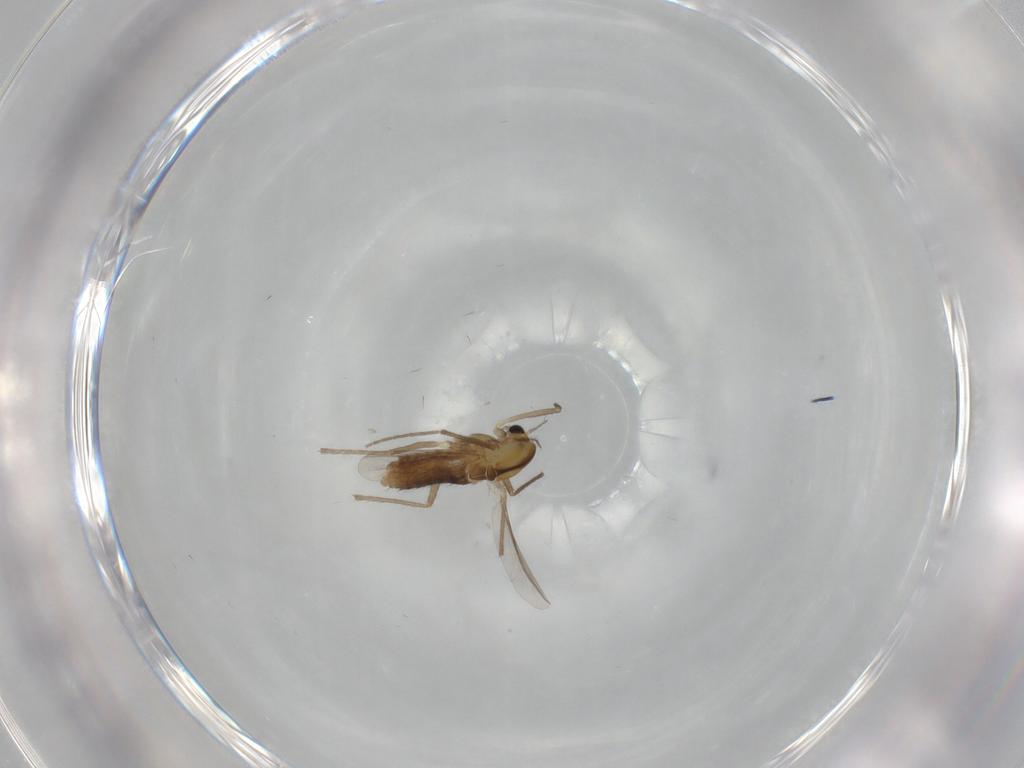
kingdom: Animalia
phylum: Arthropoda
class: Insecta
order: Diptera
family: Chironomidae
